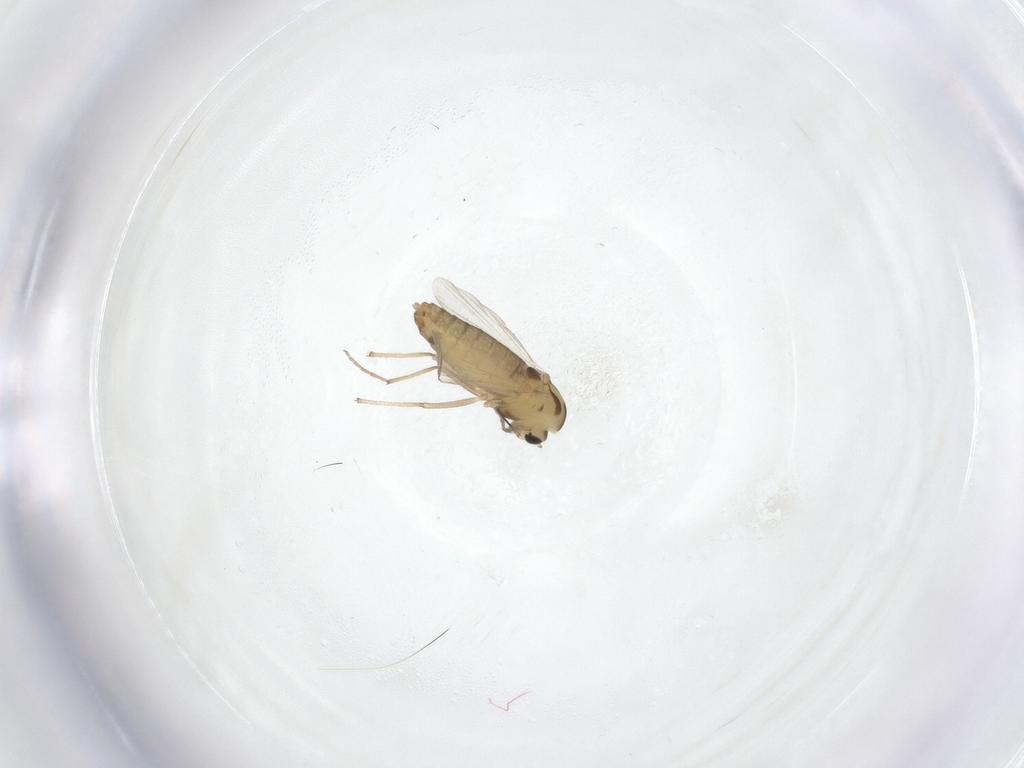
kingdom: Animalia
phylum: Arthropoda
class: Insecta
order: Diptera
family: Chironomidae
